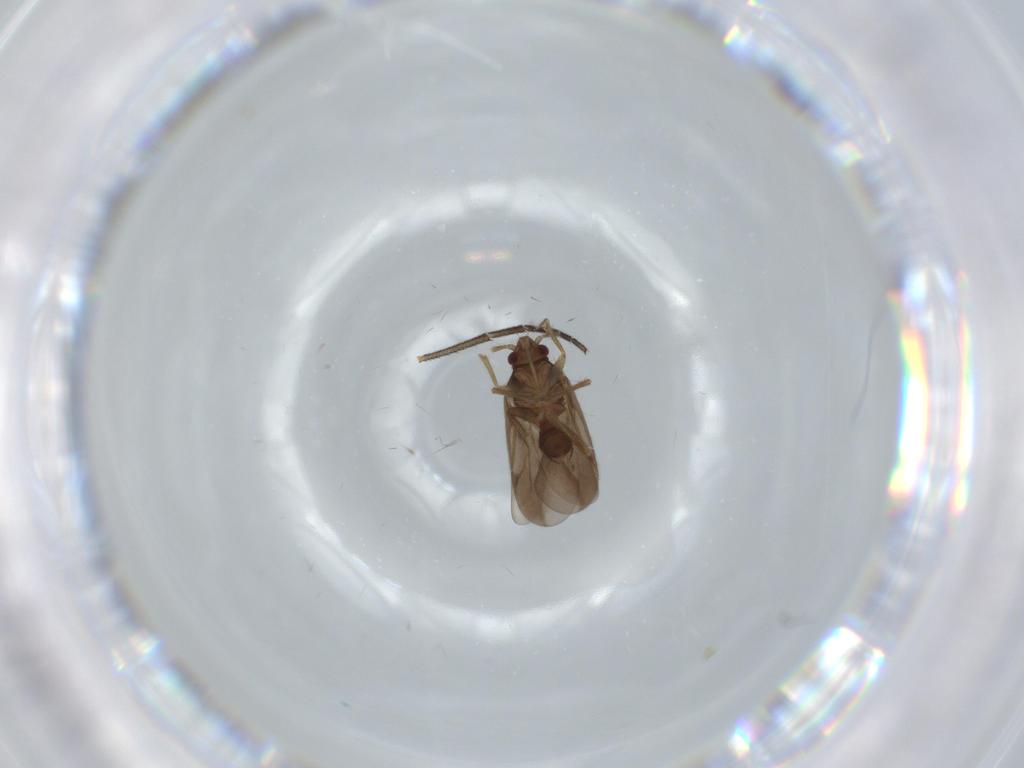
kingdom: Animalia
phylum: Arthropoda
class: Insecta
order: Hemiptera
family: Ceratocombidae
